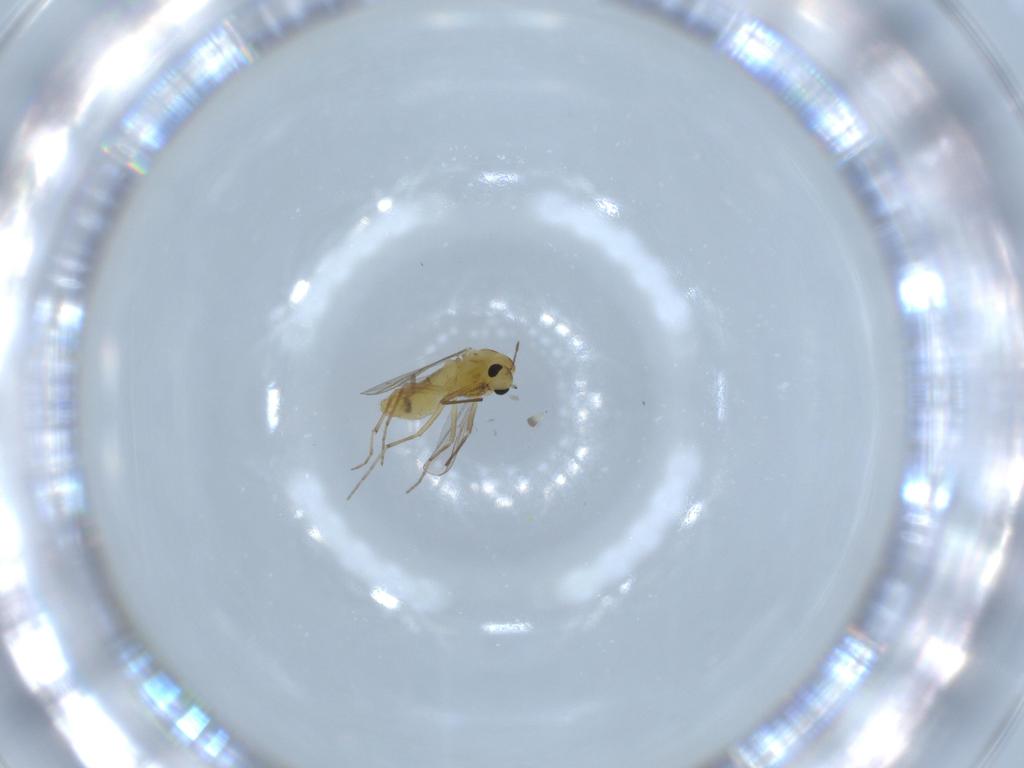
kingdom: Animalia
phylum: Arthropoda
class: Insecta
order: Diptera
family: Chironomidae
